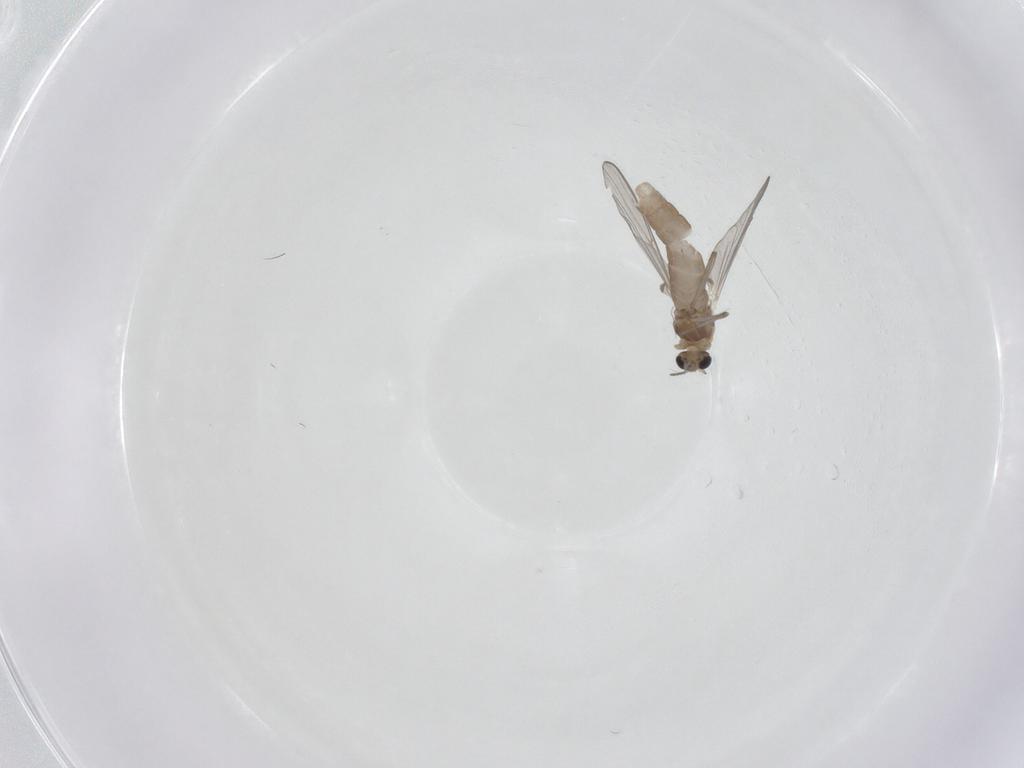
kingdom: Animalia
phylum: Arthropoda
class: Insecta
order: Diptera
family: Chironomidae
